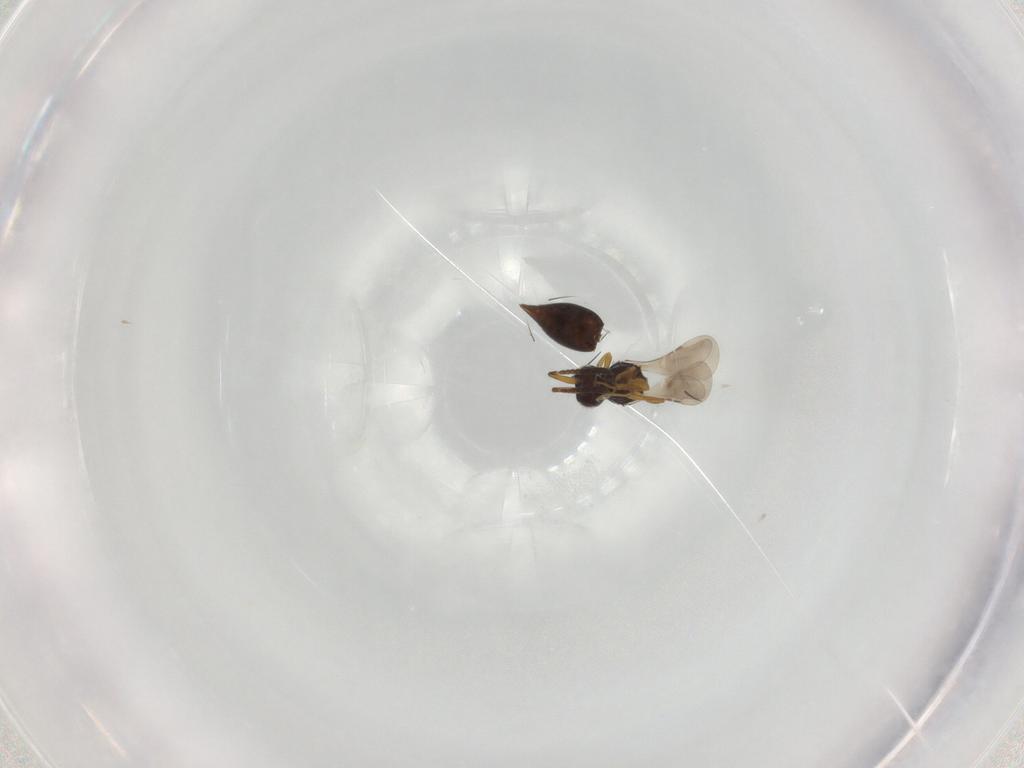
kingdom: Animalia
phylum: Arthropoda
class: Insecta
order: Hymenoptera
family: Ceraphronidae
